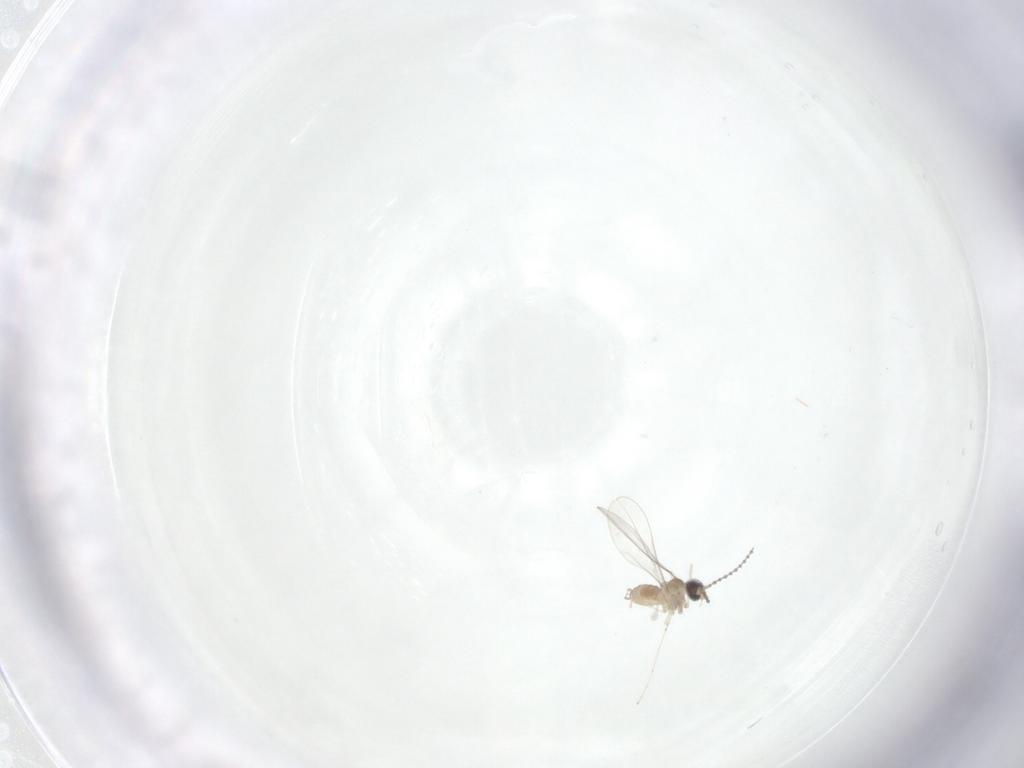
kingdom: Animalia
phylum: Arthropoda
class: Insecta
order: Diptera
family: Cecidomyiidae
